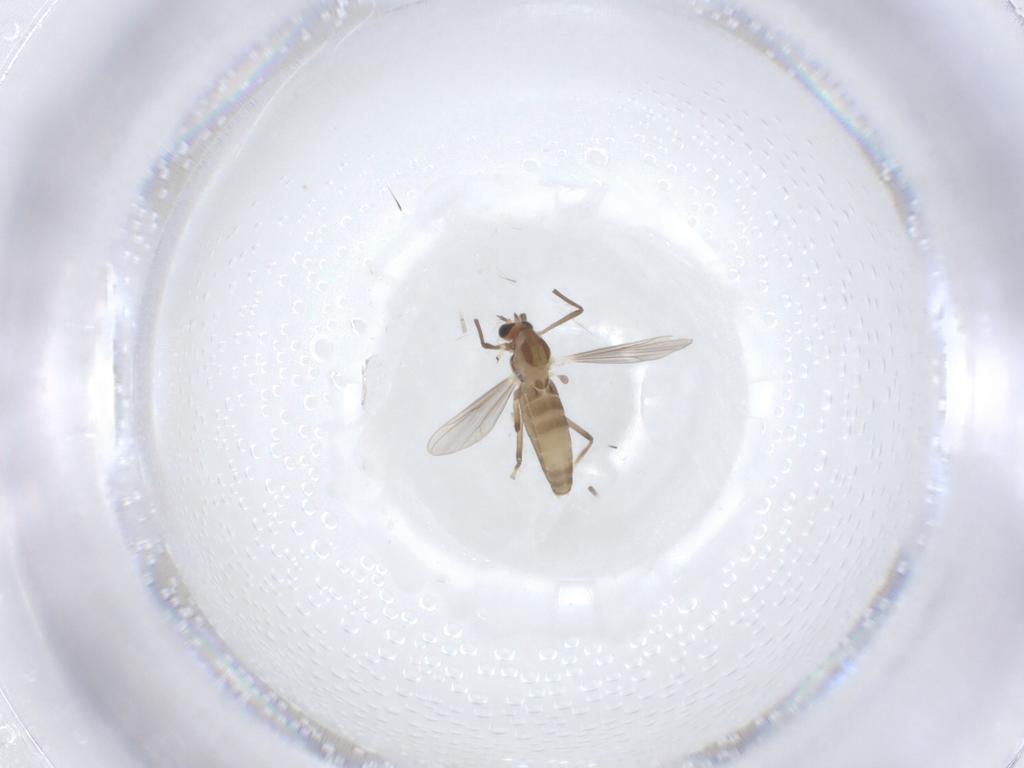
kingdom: Animalia
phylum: Arthropoda
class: Insecta
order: Diptera
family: Chironomidae
